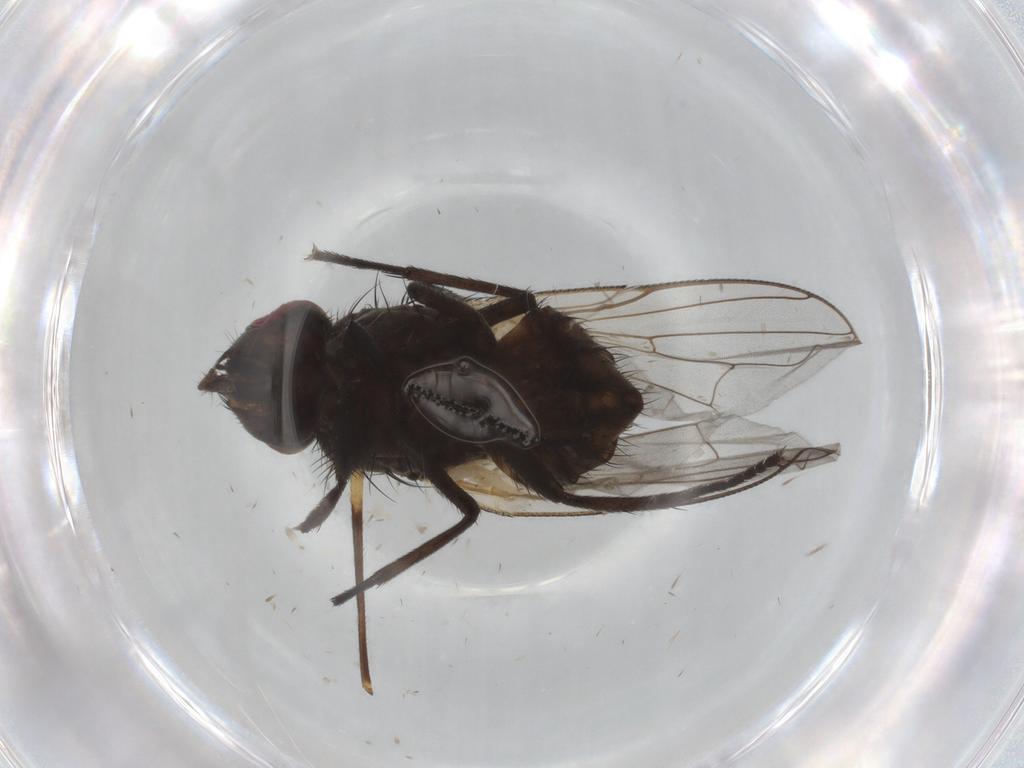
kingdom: Animalia
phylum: Arthropoda
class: Insecta
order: Diptera
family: Muscidae
